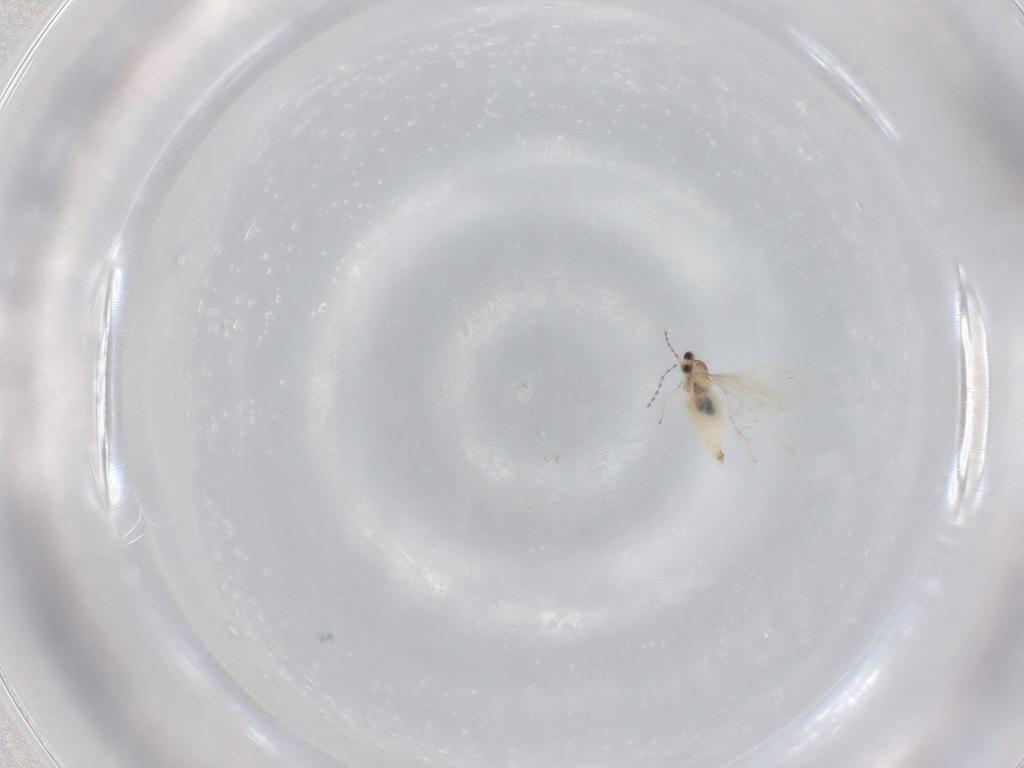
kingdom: Animalia
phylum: Arthropoda
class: Insecta
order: Diptera
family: Cecidomyiidae
